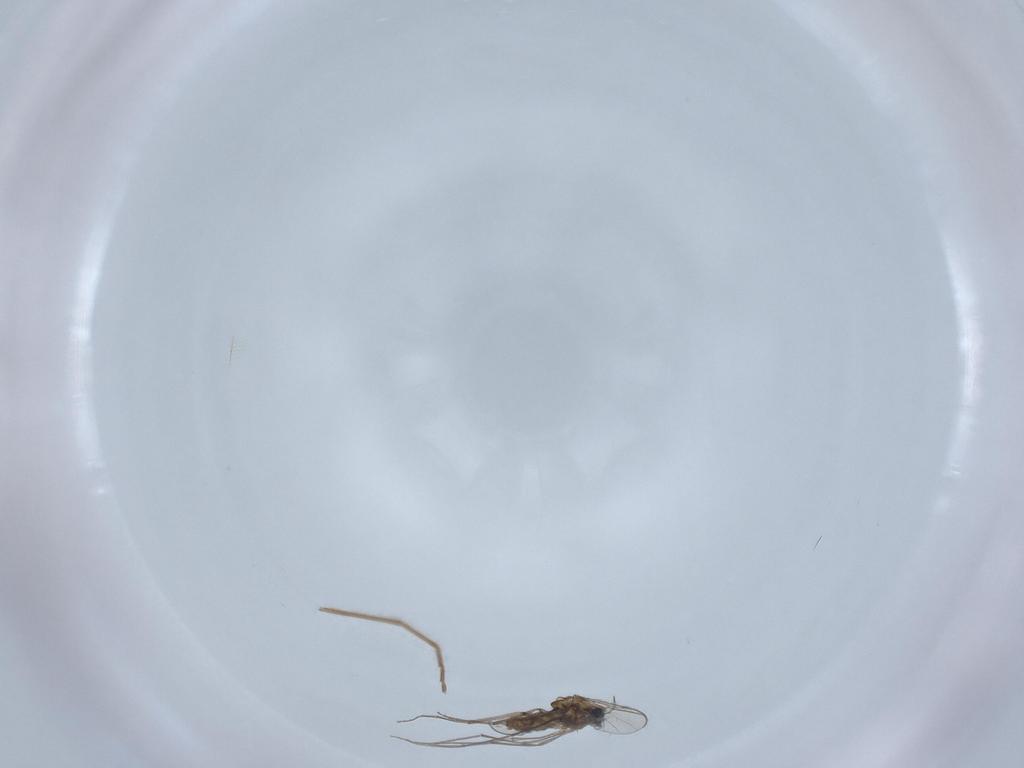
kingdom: Animalia
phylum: Arthropoda
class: Insecta
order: Diptera
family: Chironomidae
